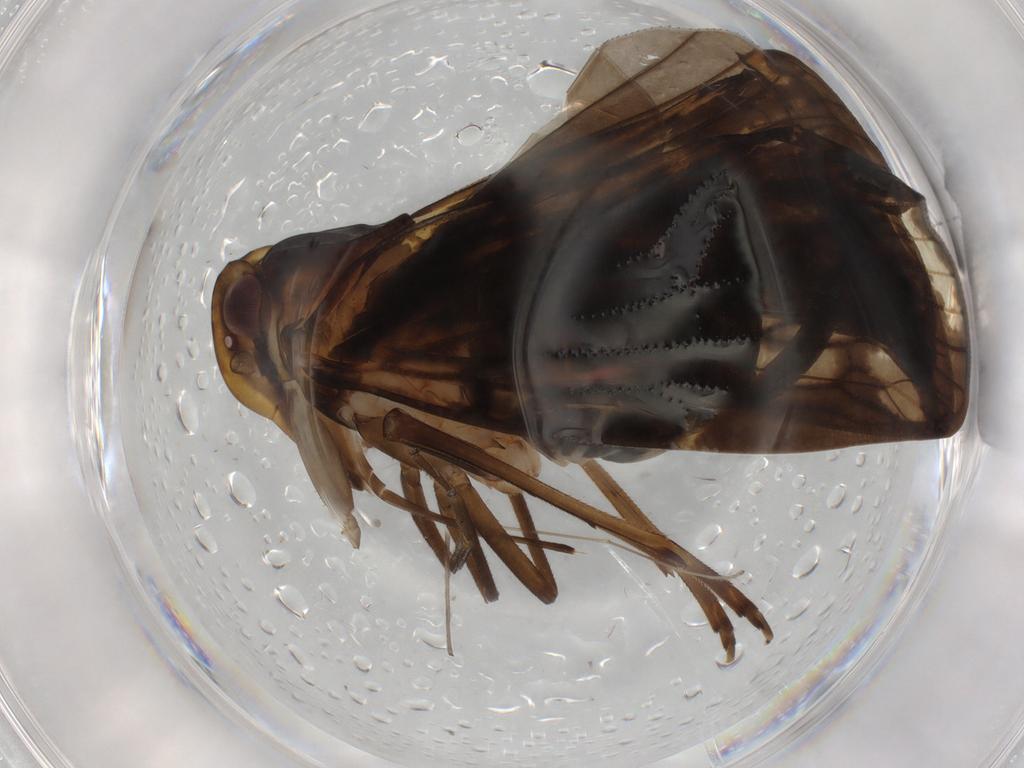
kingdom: Animalia
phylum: Arthropoda
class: Insecta
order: Hemiptera
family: Cixiidae
